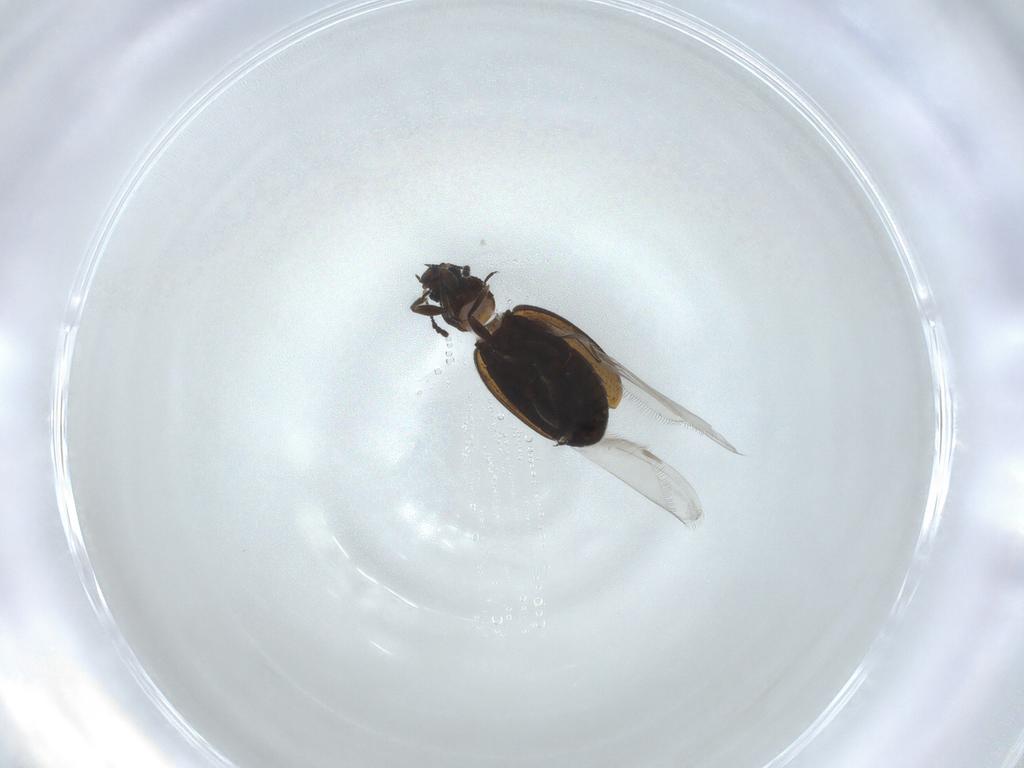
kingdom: Animalia
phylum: Arthropoda
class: Insecta
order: Coleoptera
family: Latridiidae
